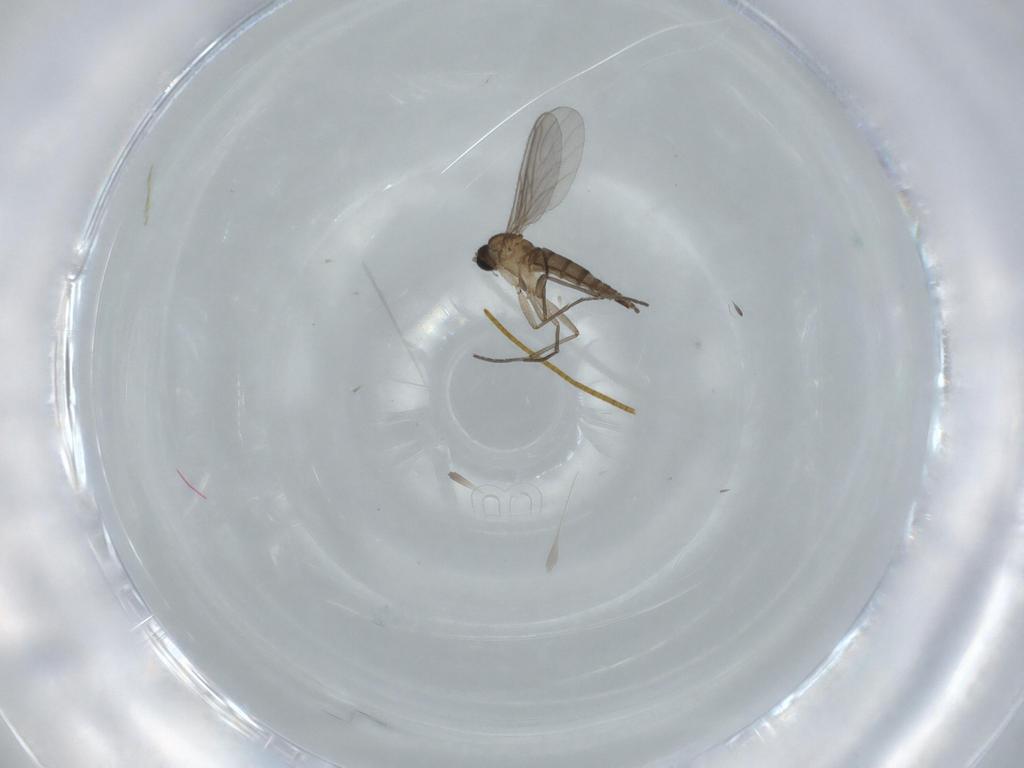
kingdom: Animalia
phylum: Arthropoda
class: Insecta
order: Diptera
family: Sciaridae
